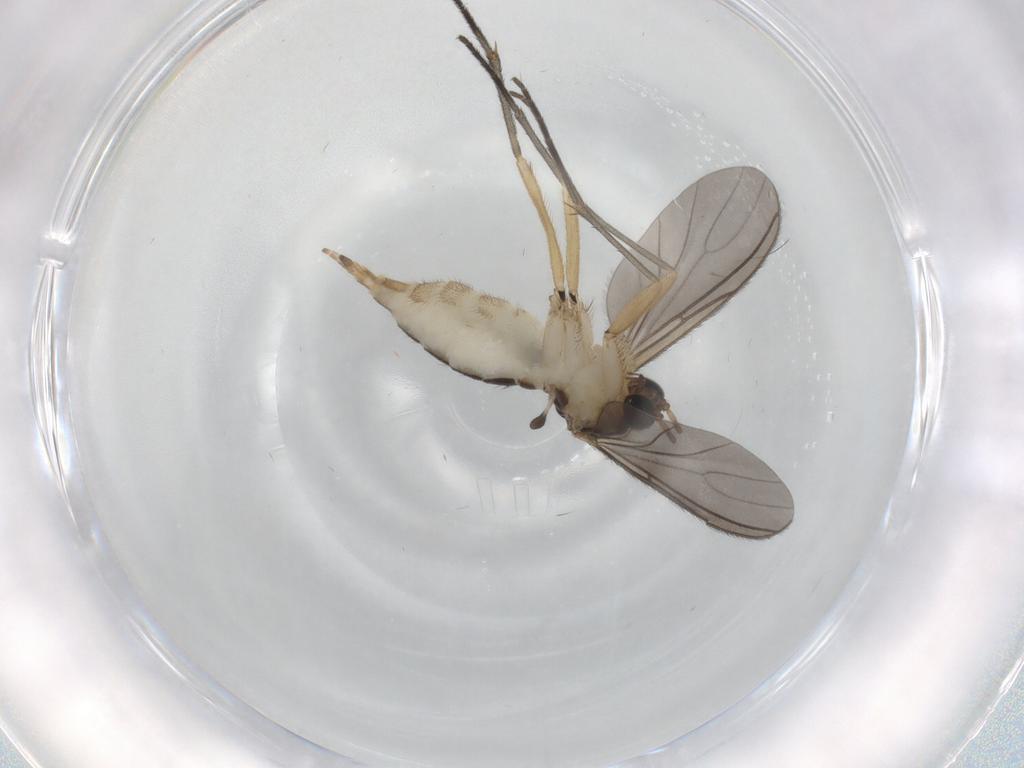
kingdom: Animalia
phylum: Arthropoda
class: Insecta
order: Diptera
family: Sciaridae
